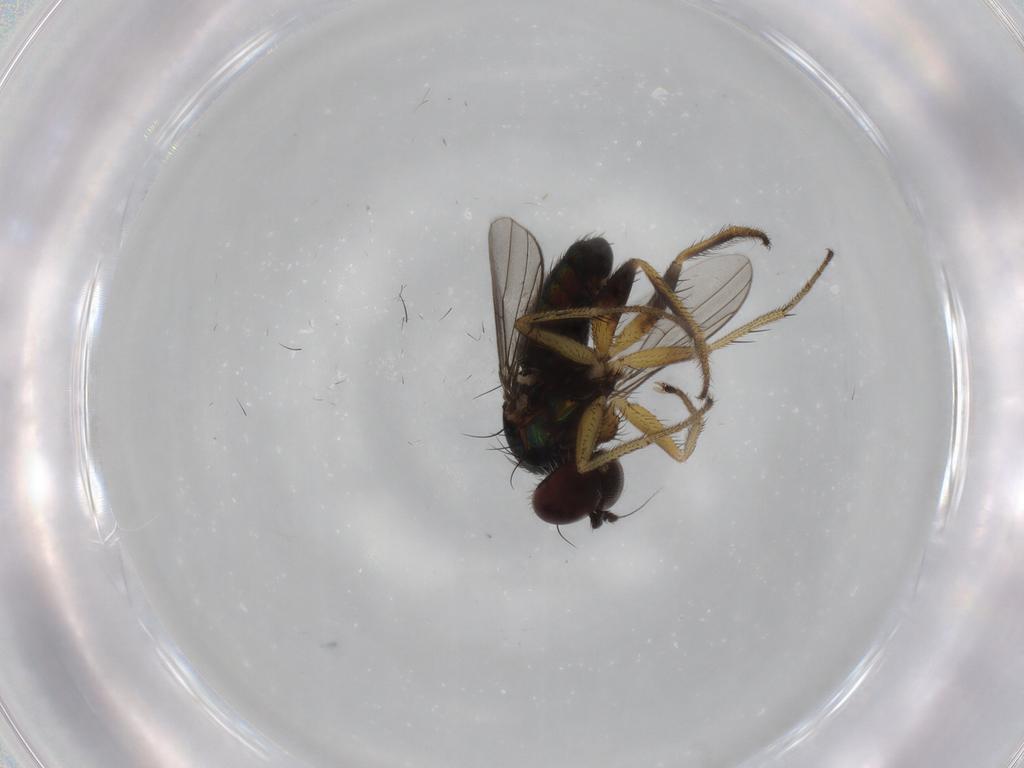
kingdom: Animalia
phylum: Arthropoda
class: Insecta
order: Diptera
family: Dolichopodidae
